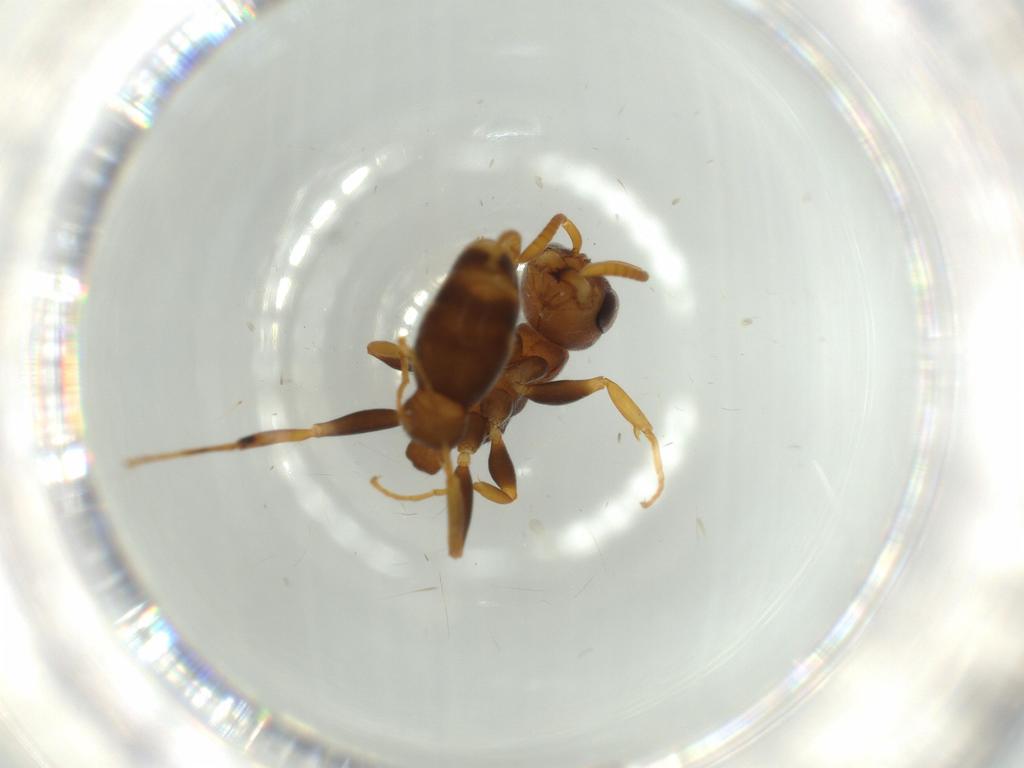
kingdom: Animalia
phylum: Arthropoda
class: Insecta
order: Hymenoptera
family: Formicidae
